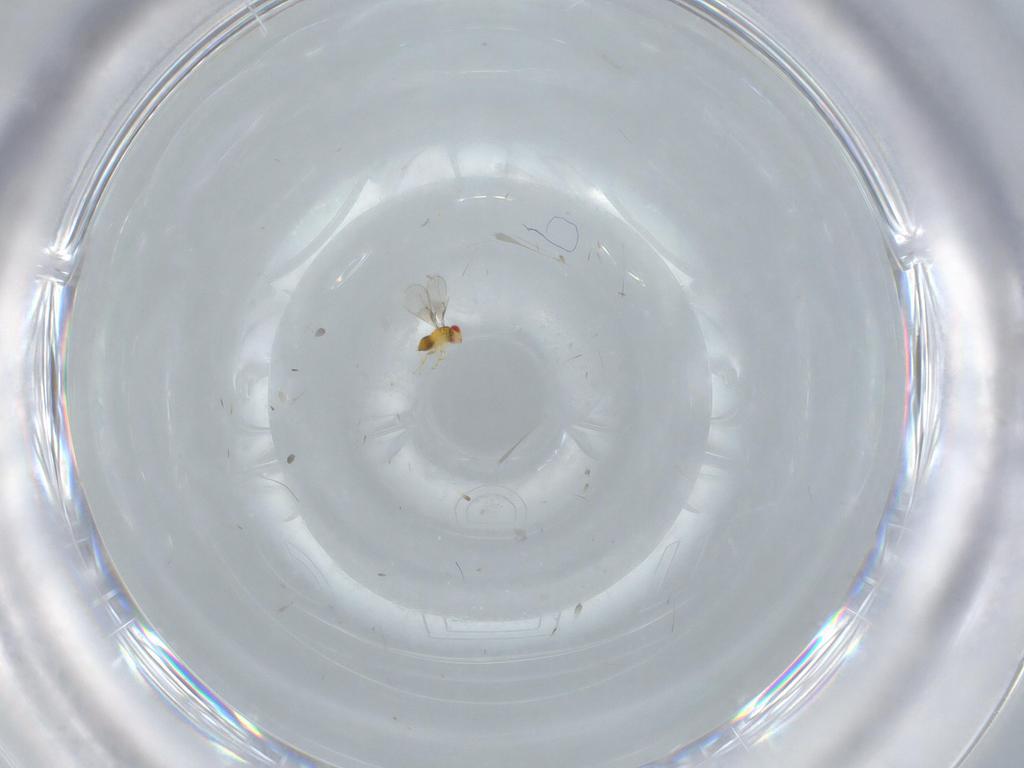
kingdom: Animalia
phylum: Arthropoda
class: Insecta
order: Hymenoptera
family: Trichogrammatidae
